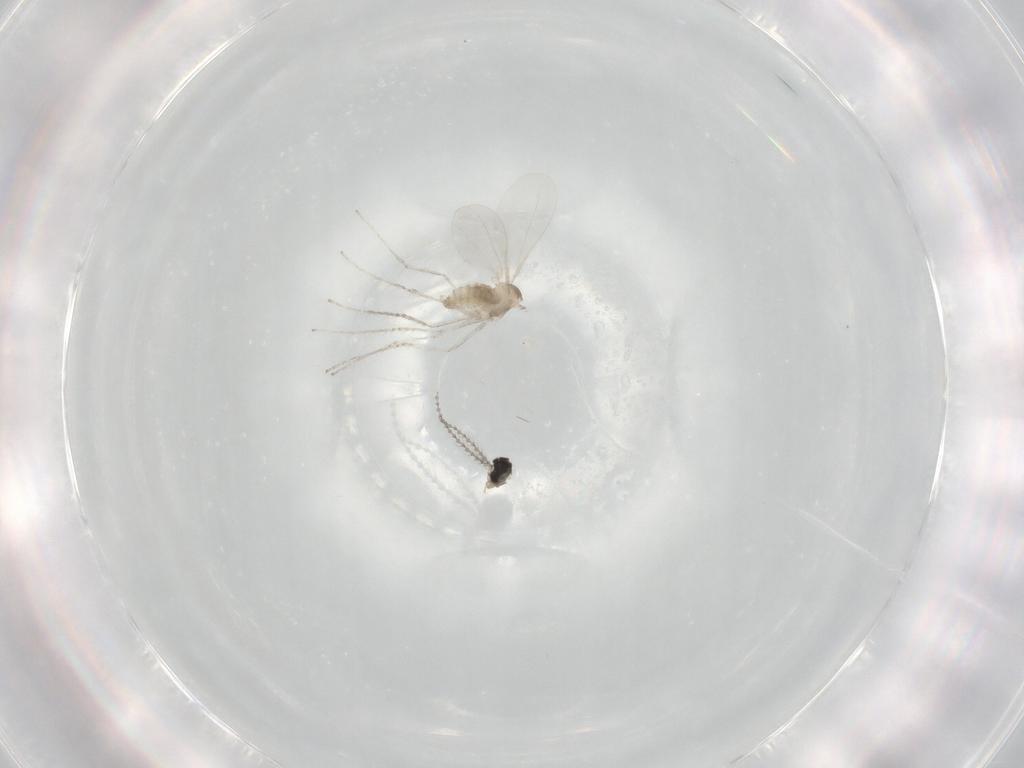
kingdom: Animalia
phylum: Arthropoda
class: Insecta
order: Diptera
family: Cecidomyiidae
